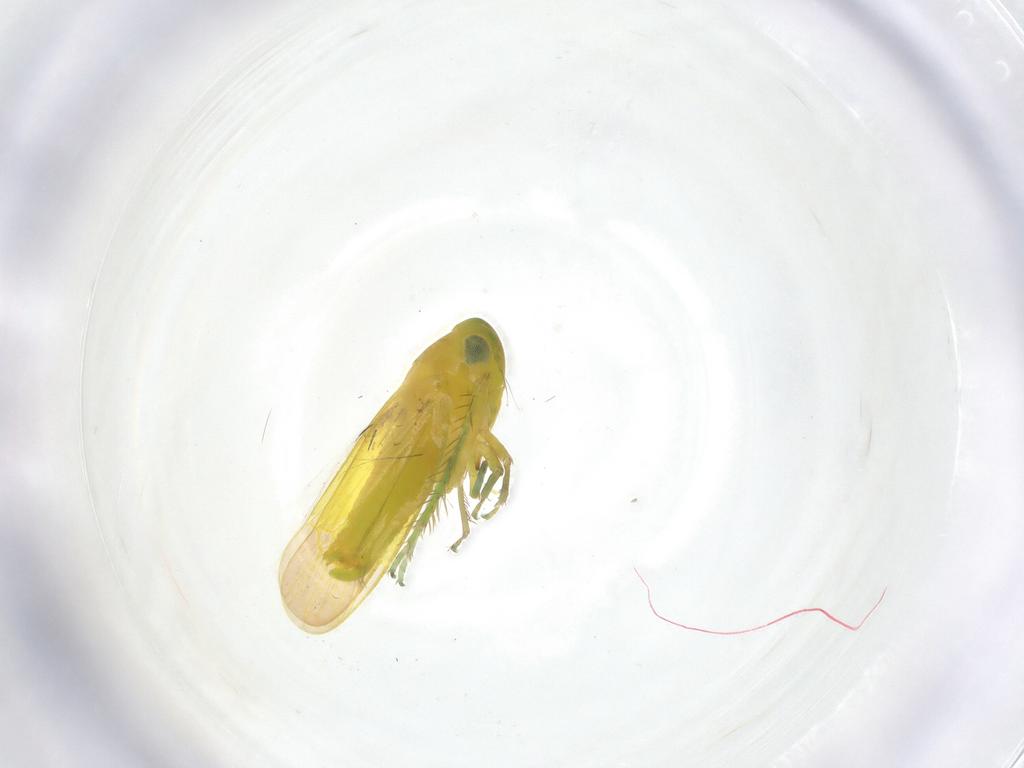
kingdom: Animalia
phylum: Arthropoda
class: Insecta
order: Hemiptera
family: Cicadellidae
